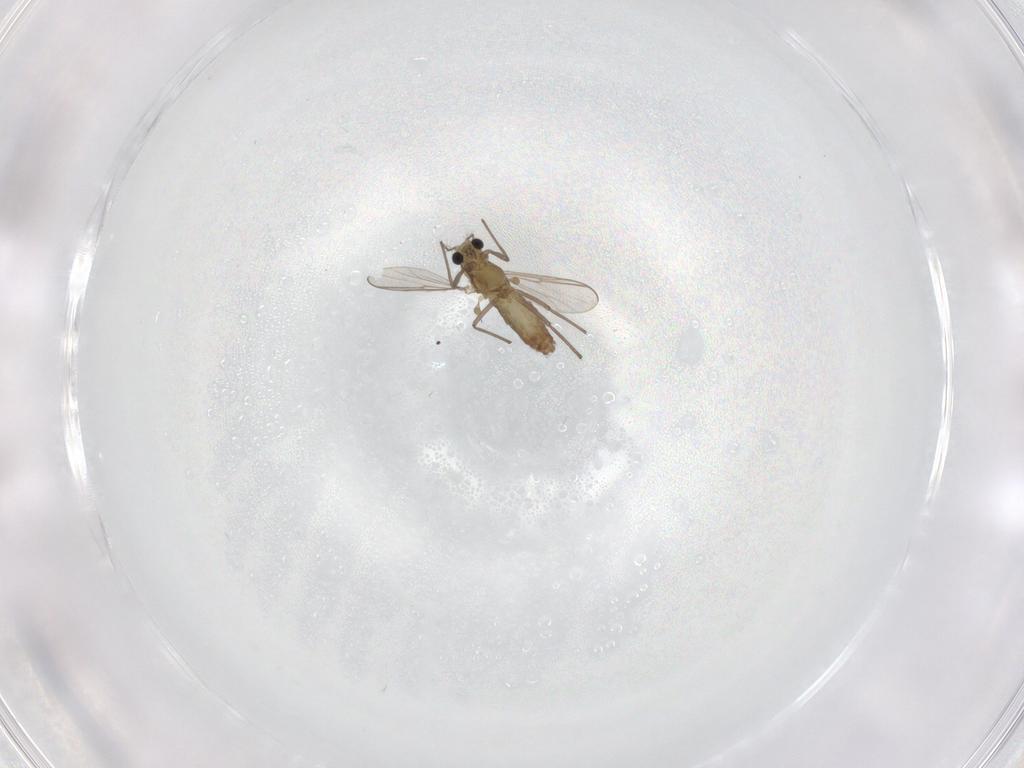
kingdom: Animalia
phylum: Arthropoda
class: Insecta
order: Diptera
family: Chironomidae
